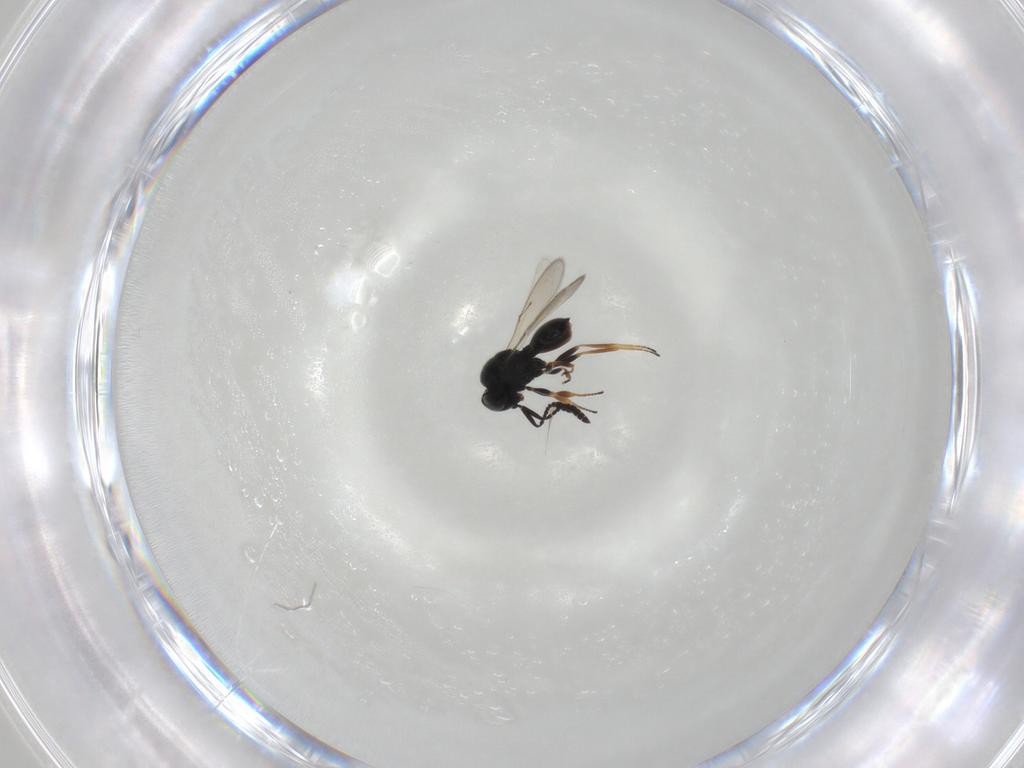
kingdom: Animalia
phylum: Arthropoda
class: Insecta
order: Hymenoptera
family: Scelionidae
